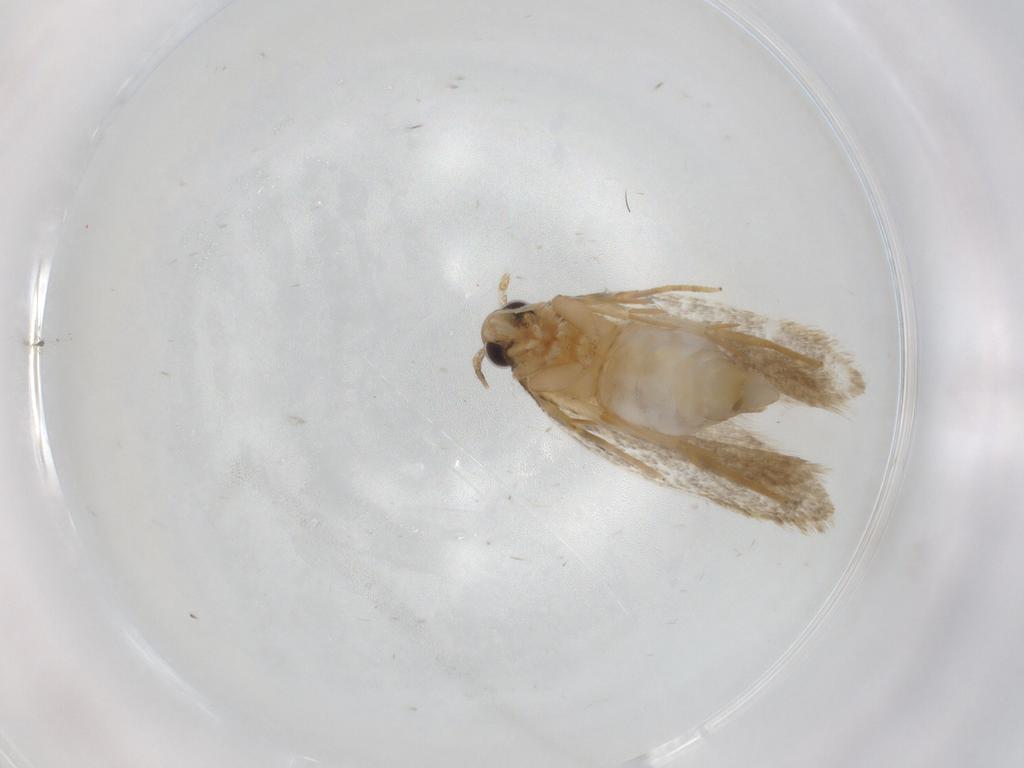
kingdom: Animalia
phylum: Arthropoda
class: Insecta
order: Lepidoptera
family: Autostichidae
